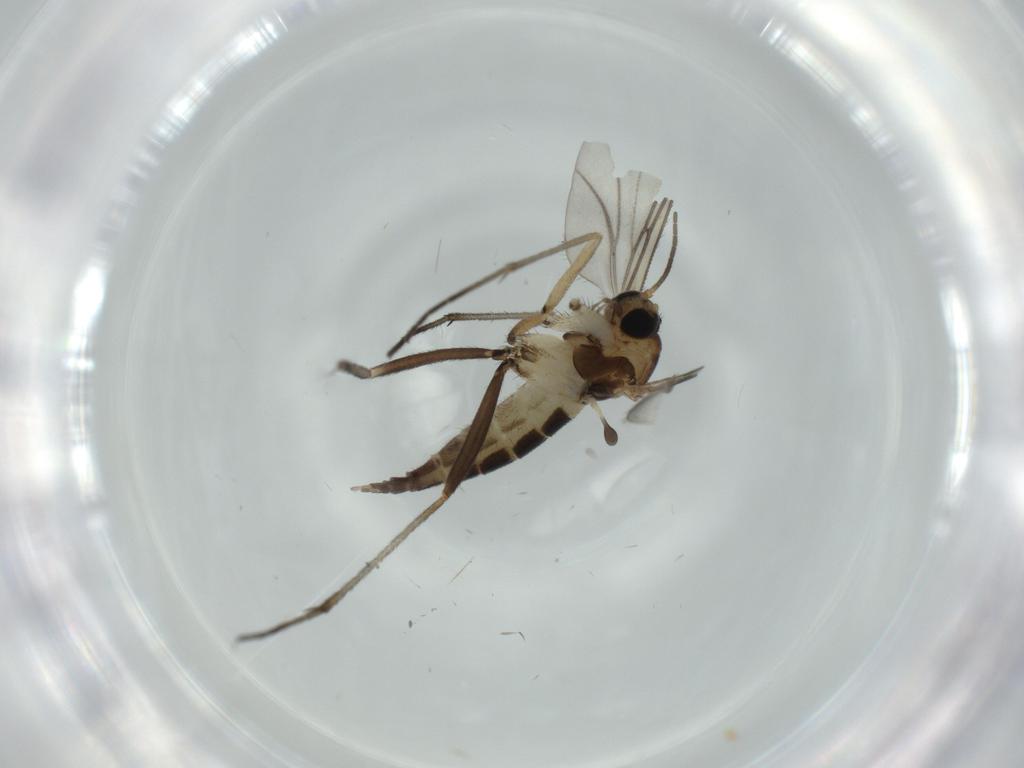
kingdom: Animalia
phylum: Arthropoda
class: Insecta
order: Diptera
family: Sciaridae
